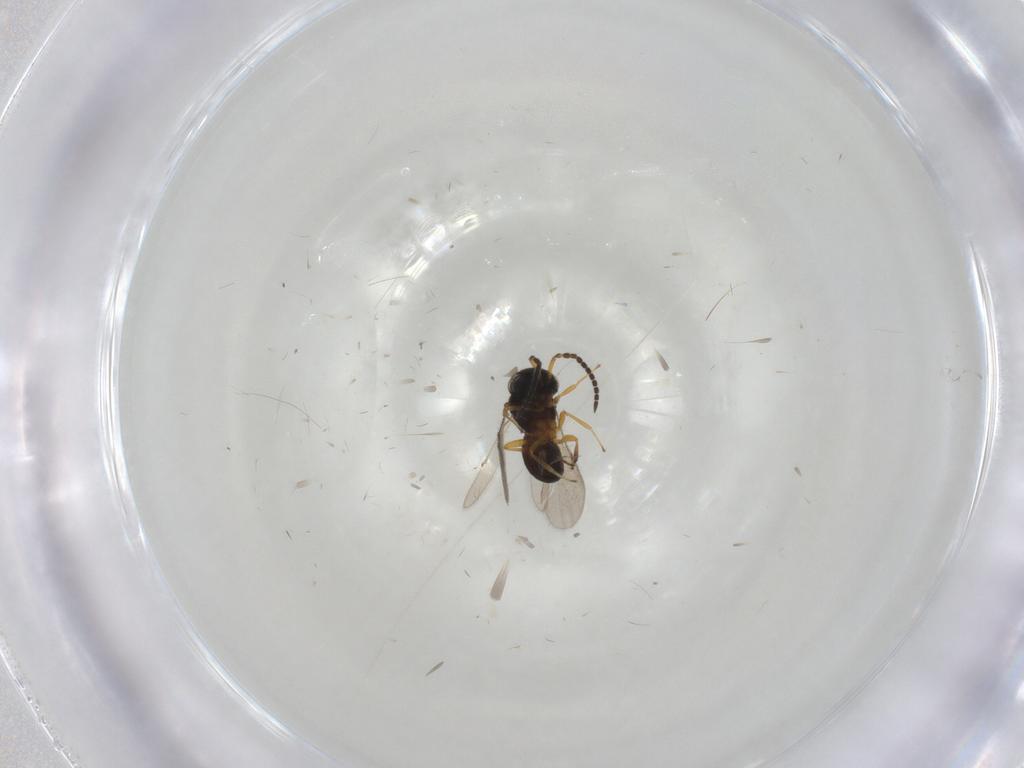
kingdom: Animalia
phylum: Arthropoda
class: Insecta
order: Hymenoptera
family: Scelionidae
